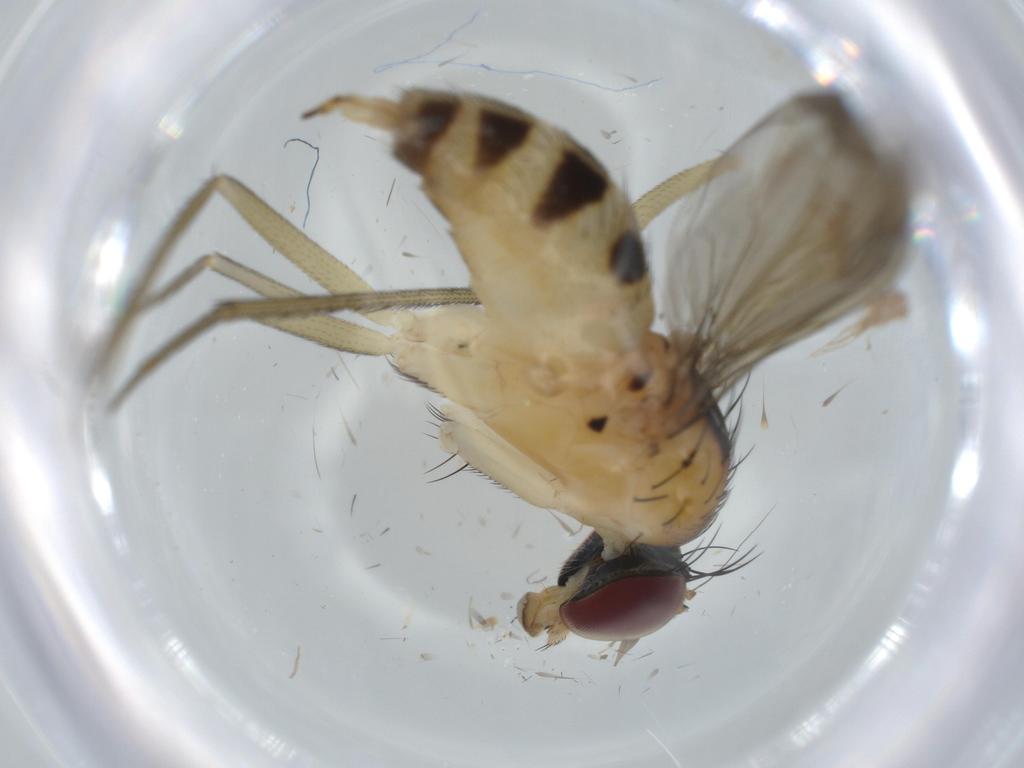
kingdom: Animalia
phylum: Arthropoda
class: Insecta
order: Diptera
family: Dolichopodidae
